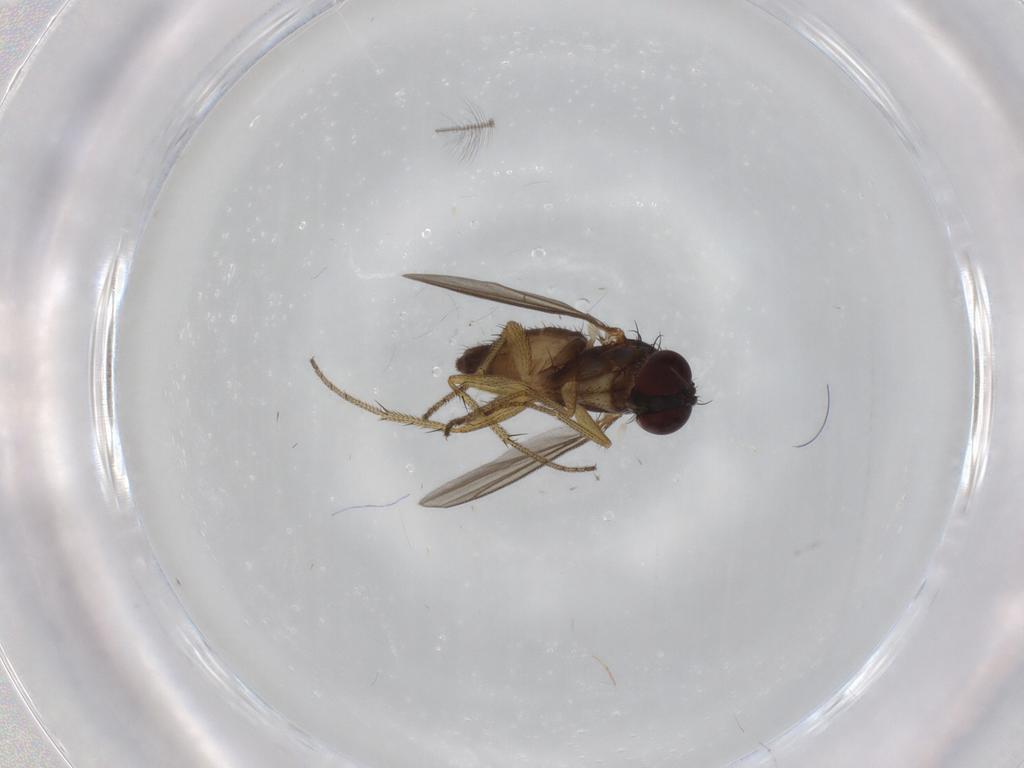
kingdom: Animalia
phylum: Arthropoda
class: Insecta
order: Diptera
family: Dolichopodidae
